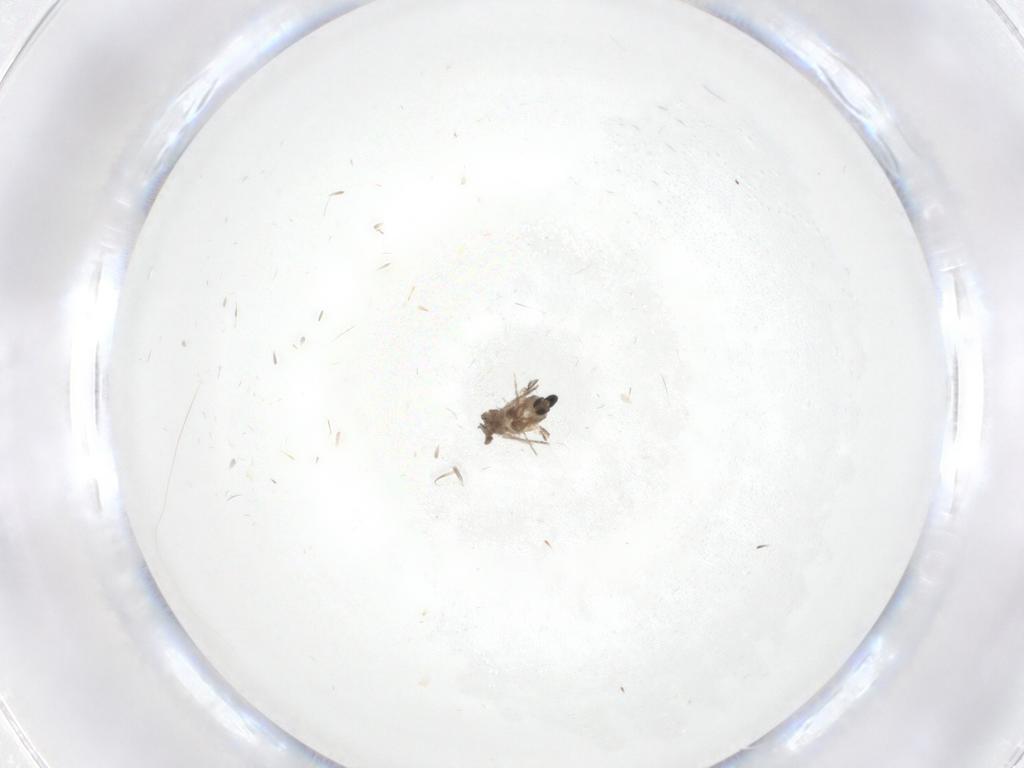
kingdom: Animalia
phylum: Arthropoda
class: Insecta
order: Diptera
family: Cecidomyiidae
